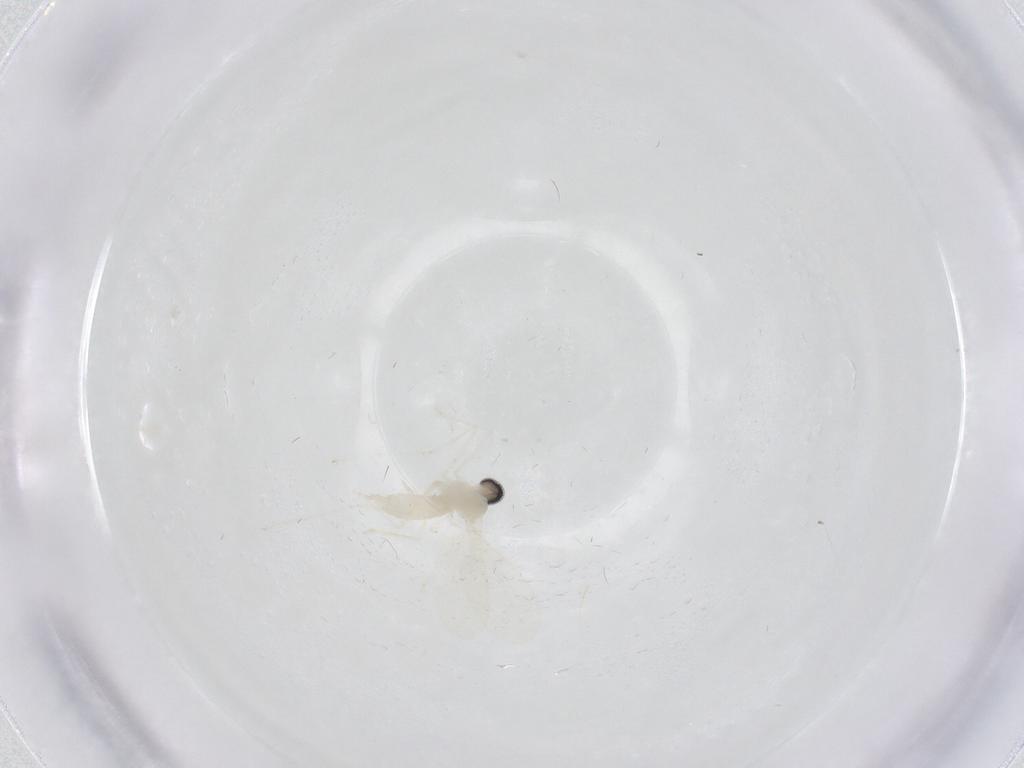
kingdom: Animalia
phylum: Arthropoda
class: Insecta
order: Diptera
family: Cecidomyiidae
